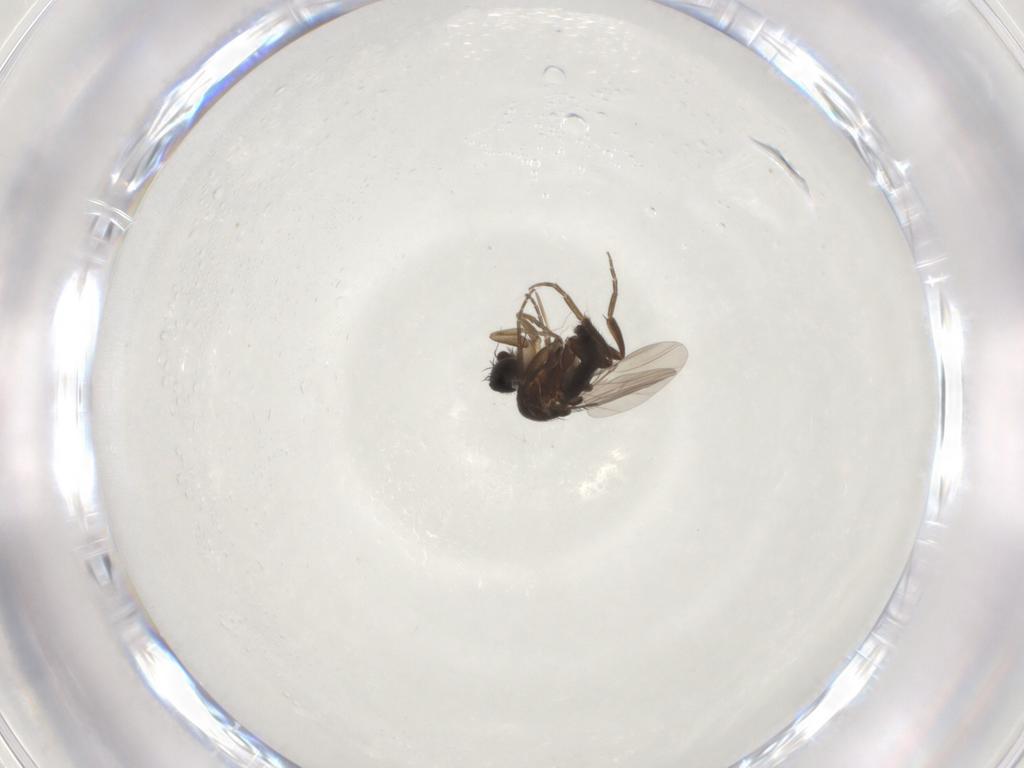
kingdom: Animalia
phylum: Arthropoda
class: Insecta
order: Diptera
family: Phoridae
